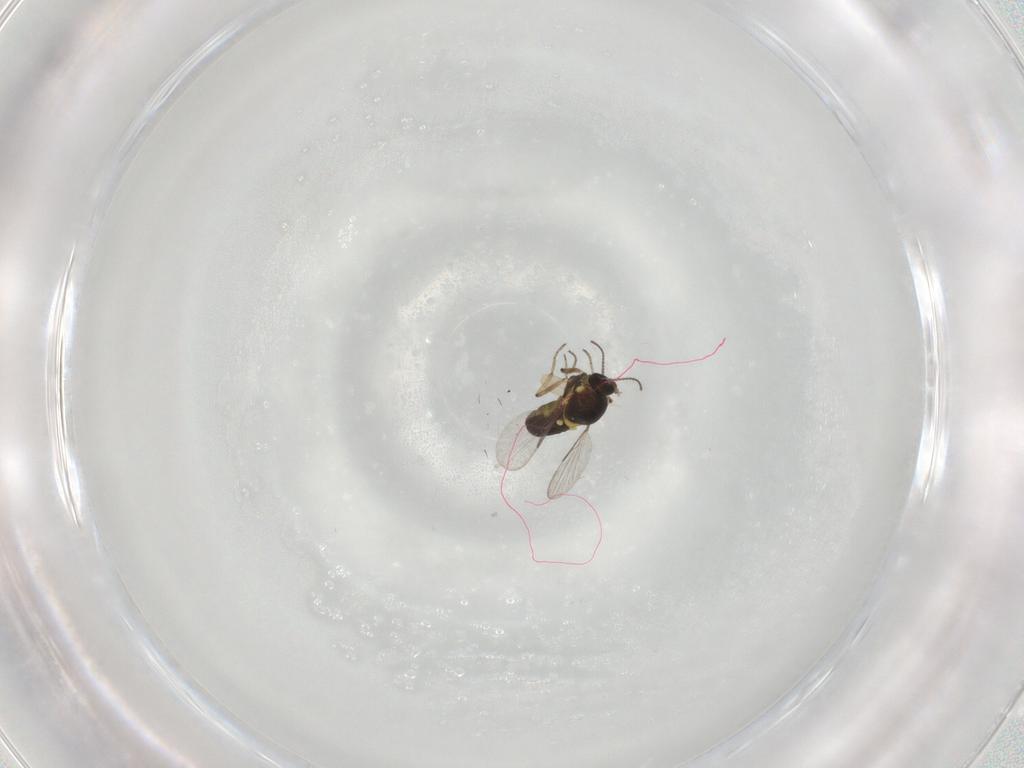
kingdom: Animalia
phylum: Arthropoda
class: Insecta
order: Diptera
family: Ceratopogonidae
